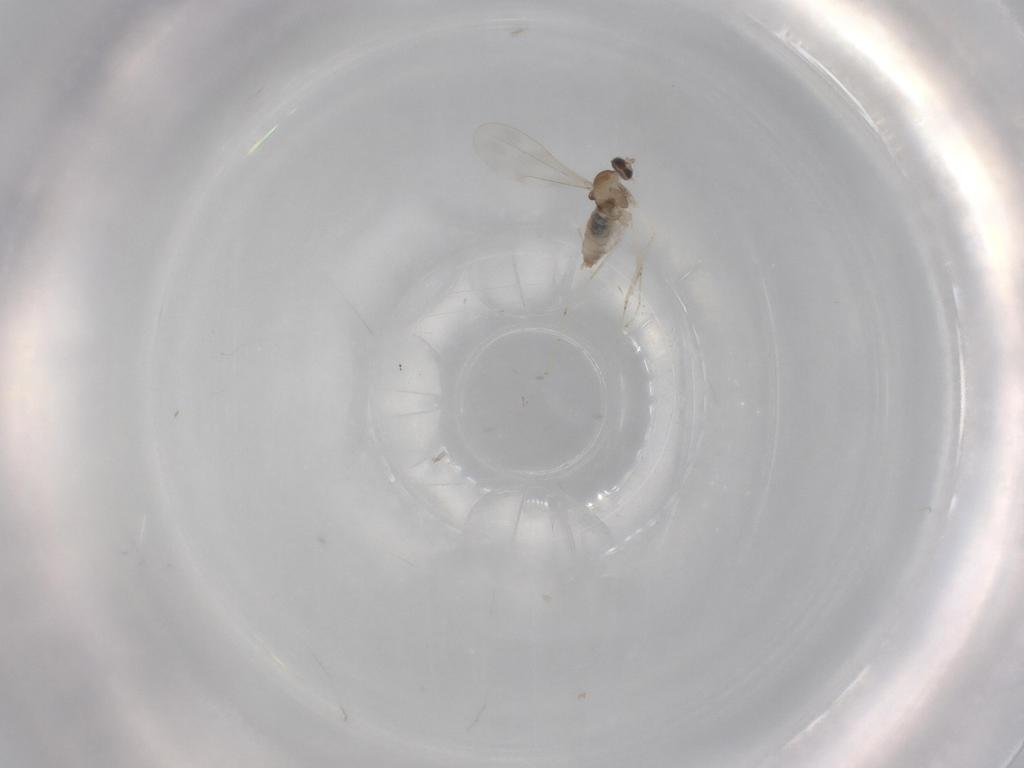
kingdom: Animalia
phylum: Arthropoda
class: Insecta
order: Diptera
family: Cecidomyiidae
